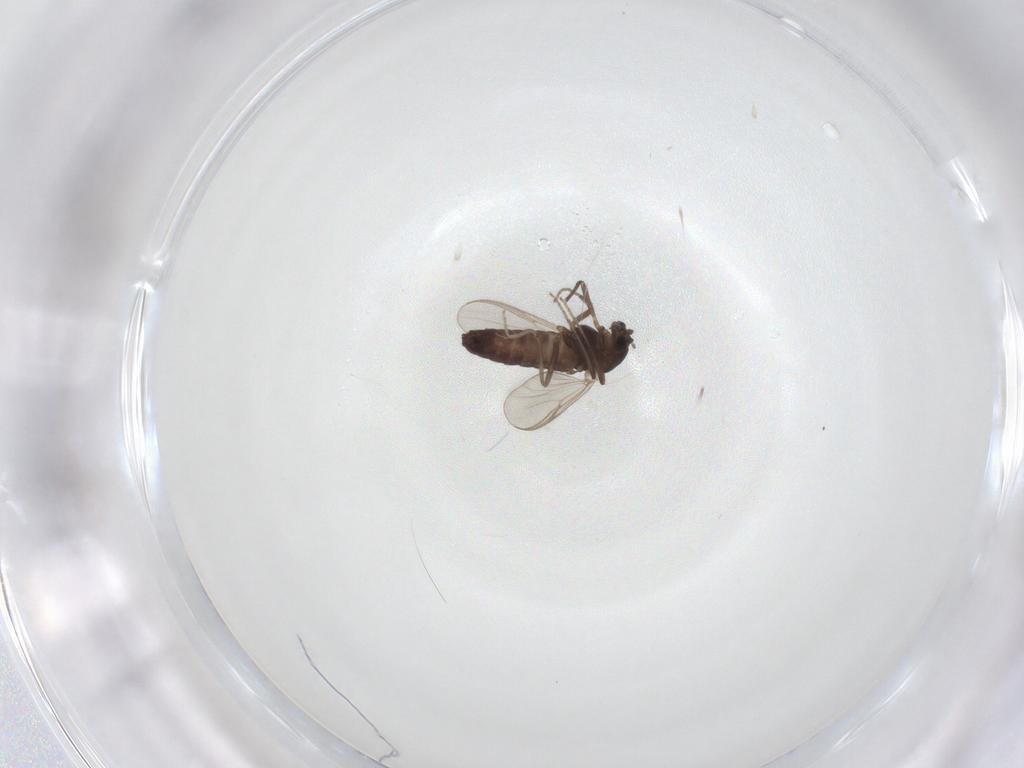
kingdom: Animalia
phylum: Arthropoda
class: Insecta
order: Diptera
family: Chironomidae
